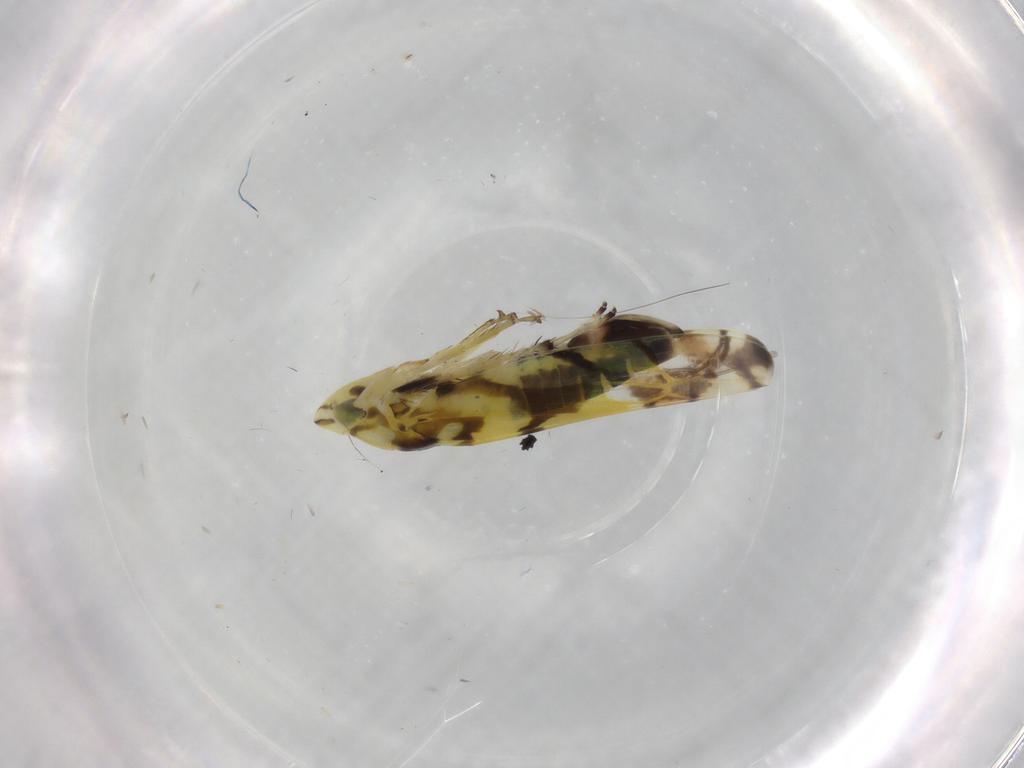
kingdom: Animalia
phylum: Arthropoda
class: Insecta
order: Hemiptera
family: Cicadellidae
